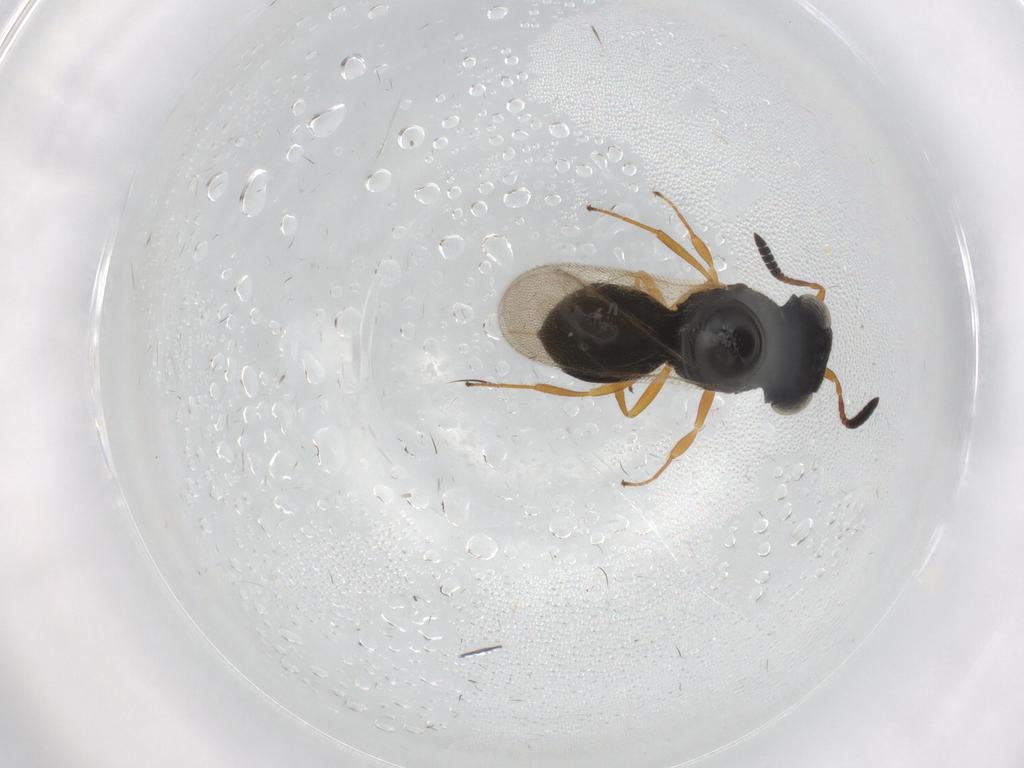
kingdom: Animalia
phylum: Arthropoda
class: Insecta
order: Hymenoptera
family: Scelionidae
